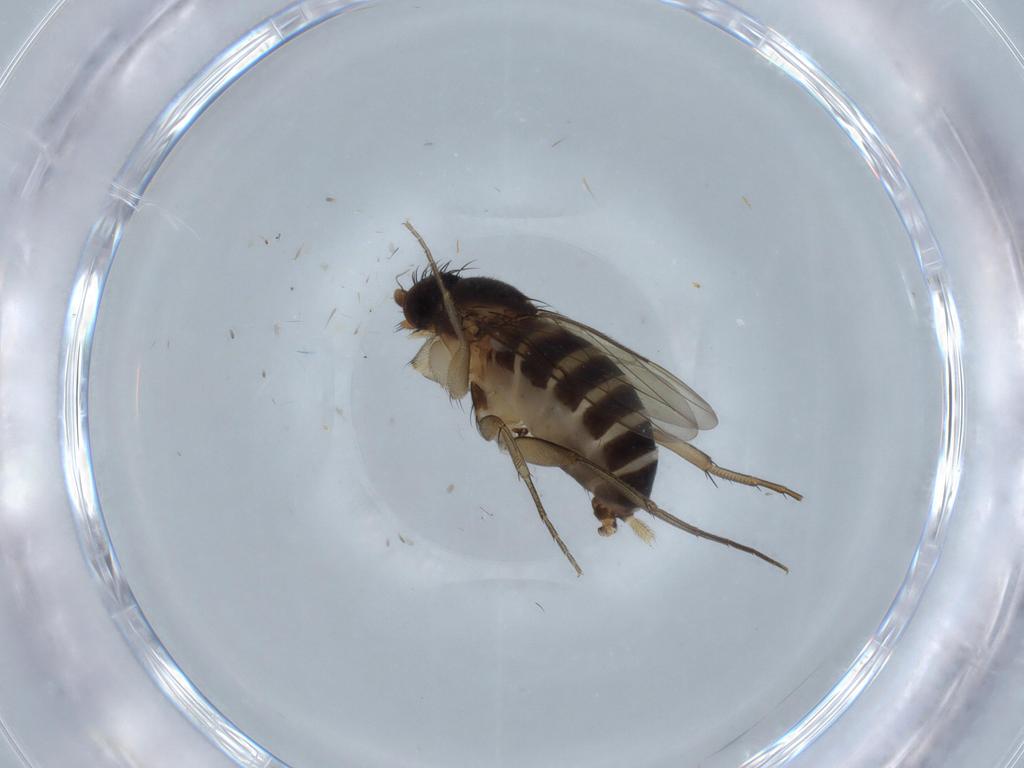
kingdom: Animalia
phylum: Arthropoda
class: Insecta
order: Diptera
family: Phoridae
